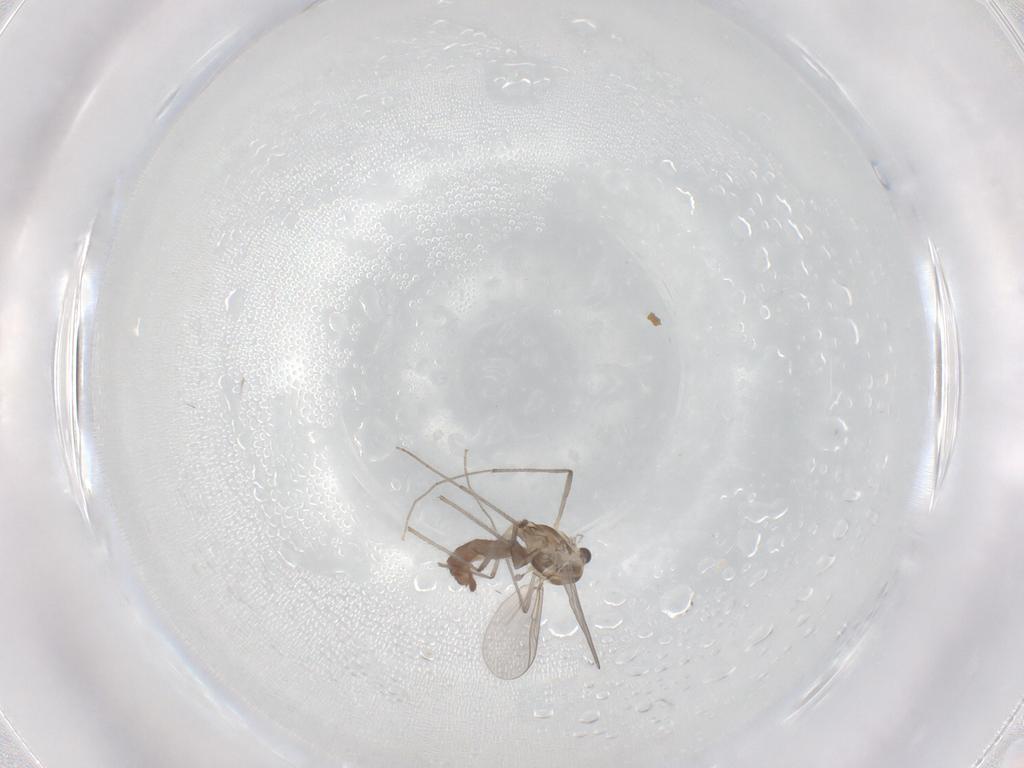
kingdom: Animalia
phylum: Arthropoda
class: Insecta
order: Diptera
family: Chironomidae
